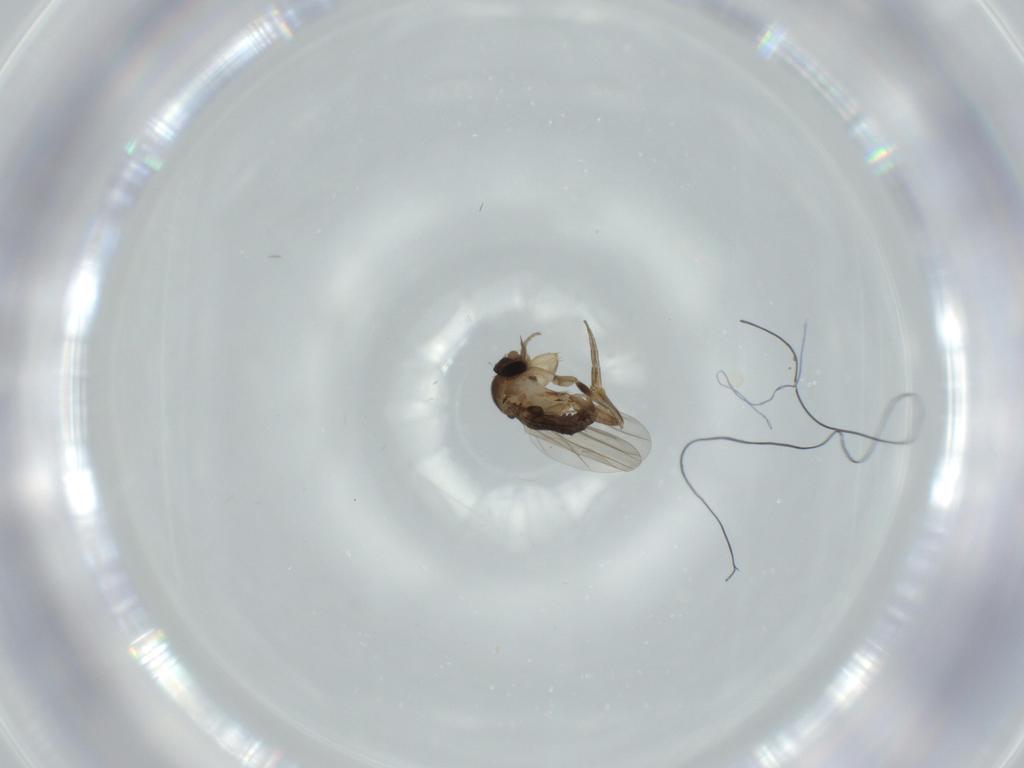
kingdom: Animalia
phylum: Arthropoda
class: Insecta
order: Diptera
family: Phoridae
